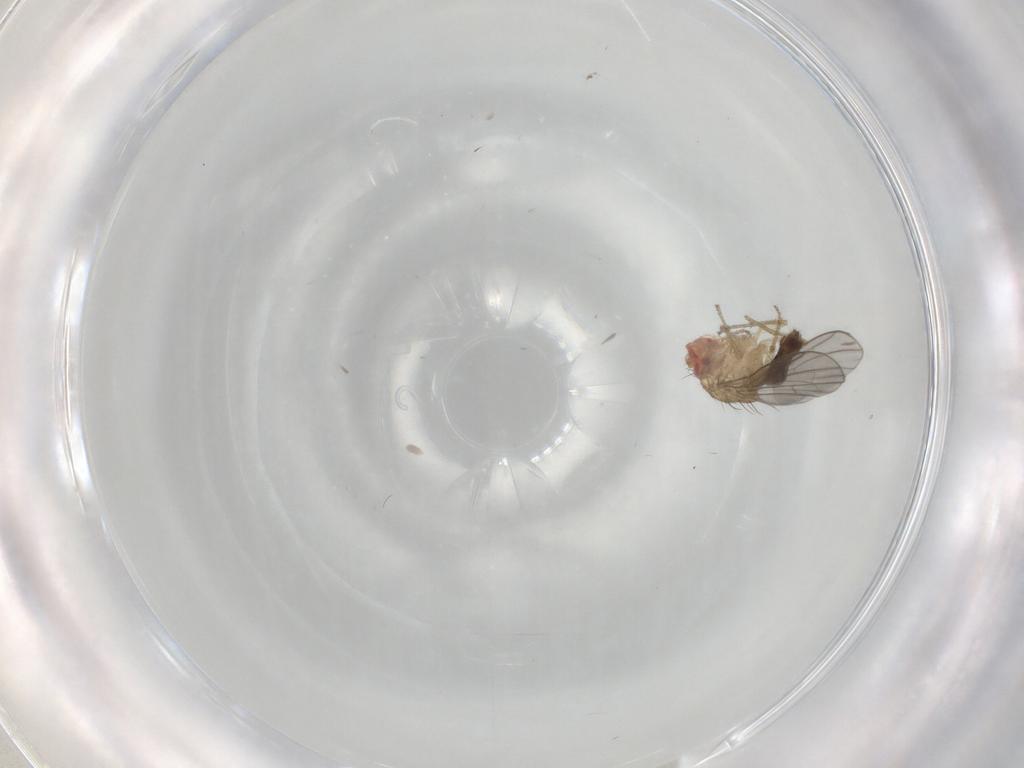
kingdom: Animalia
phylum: Arthropoda
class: Insecta
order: Diptera
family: Drosophilidae
